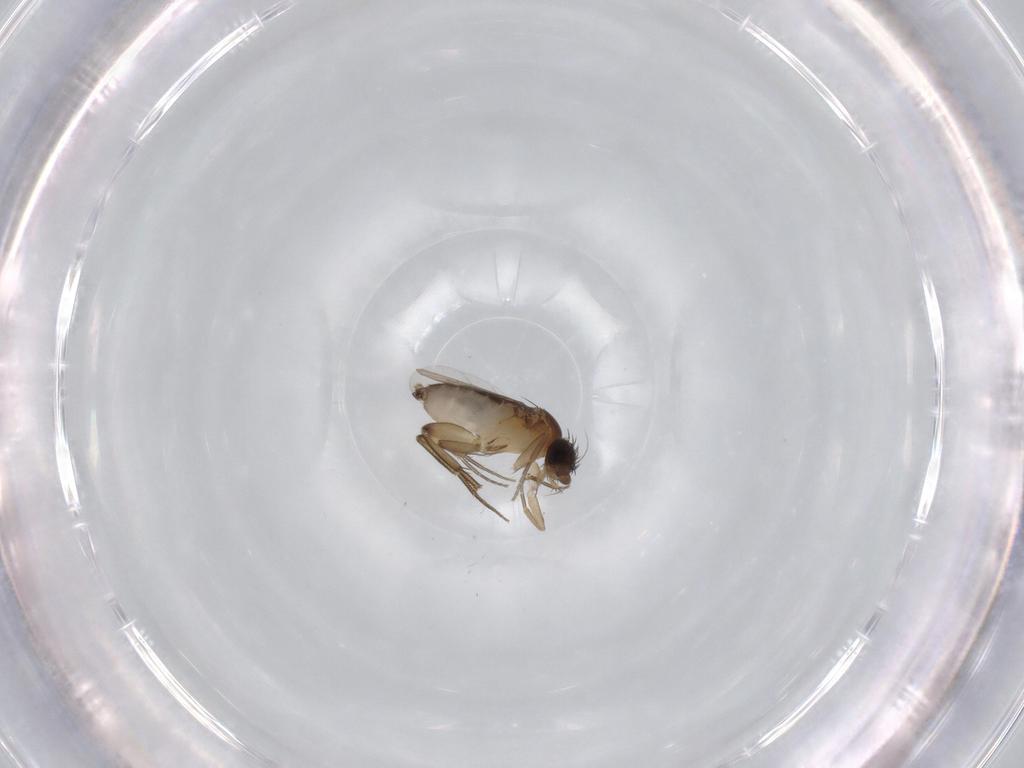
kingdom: Animalia
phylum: Arthropoda
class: Insecta
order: Diptera
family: Phoridae
